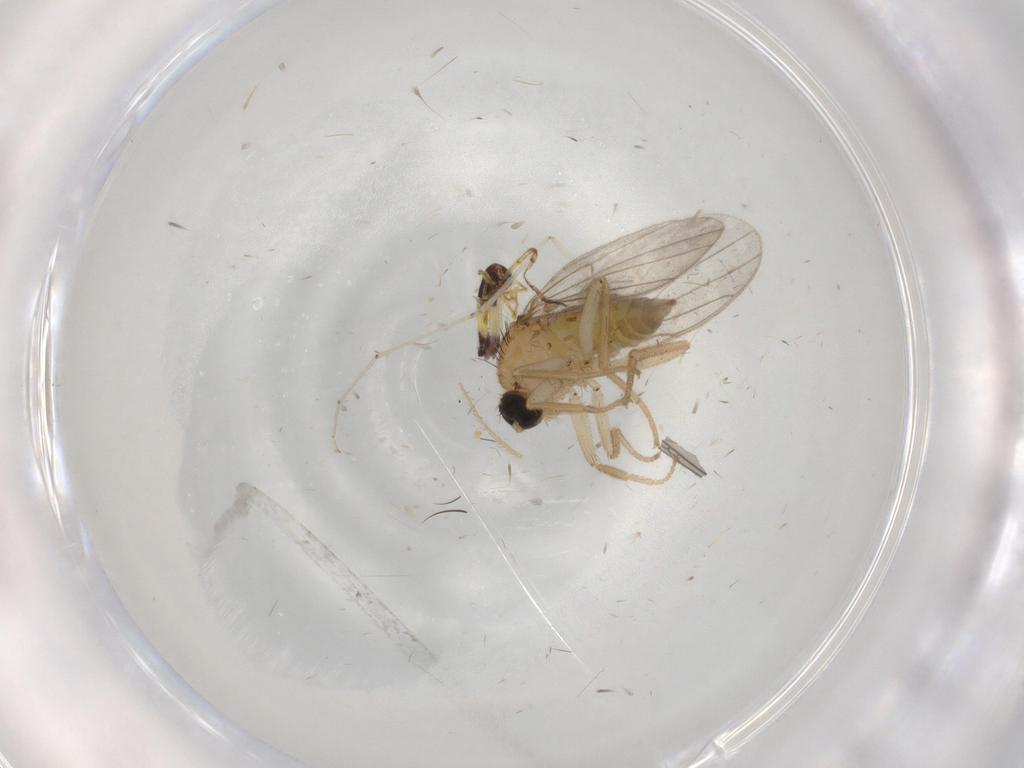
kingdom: Animalia
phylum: Arthropoda
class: Insecta
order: Diptera
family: Hybotidae
